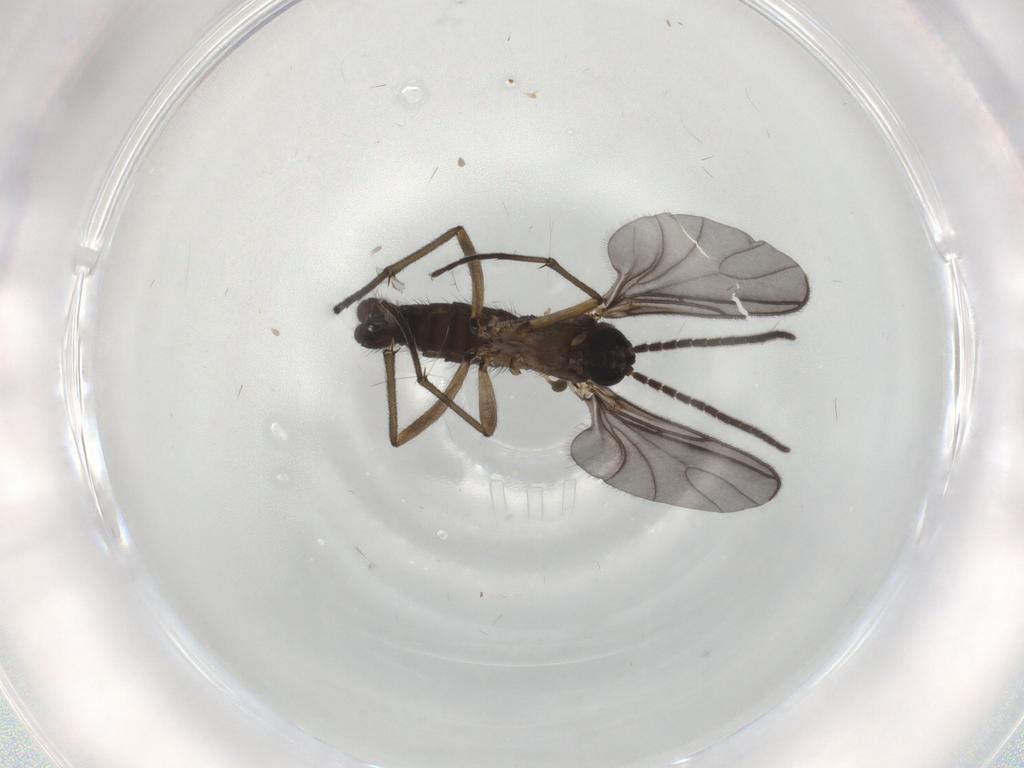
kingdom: Animalia
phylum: Arthropoda
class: Insecta
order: Diptera
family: Sciaridae
